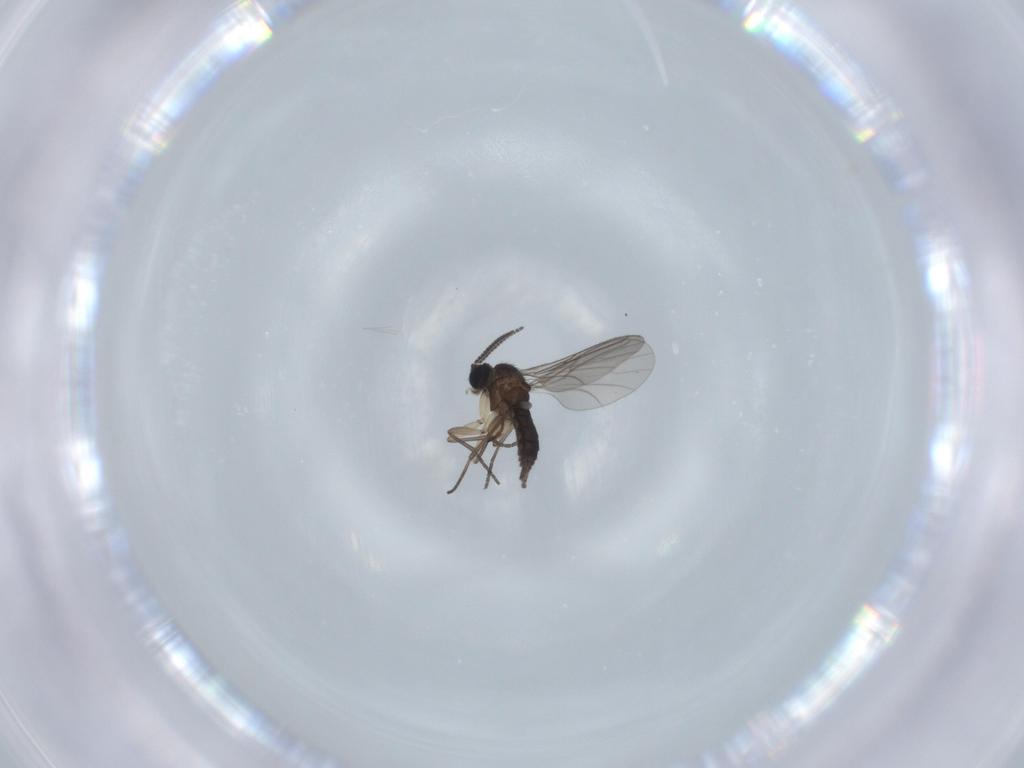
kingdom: Animalia
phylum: Arthropoda
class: Insecta
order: Diptera
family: Sciaridae
